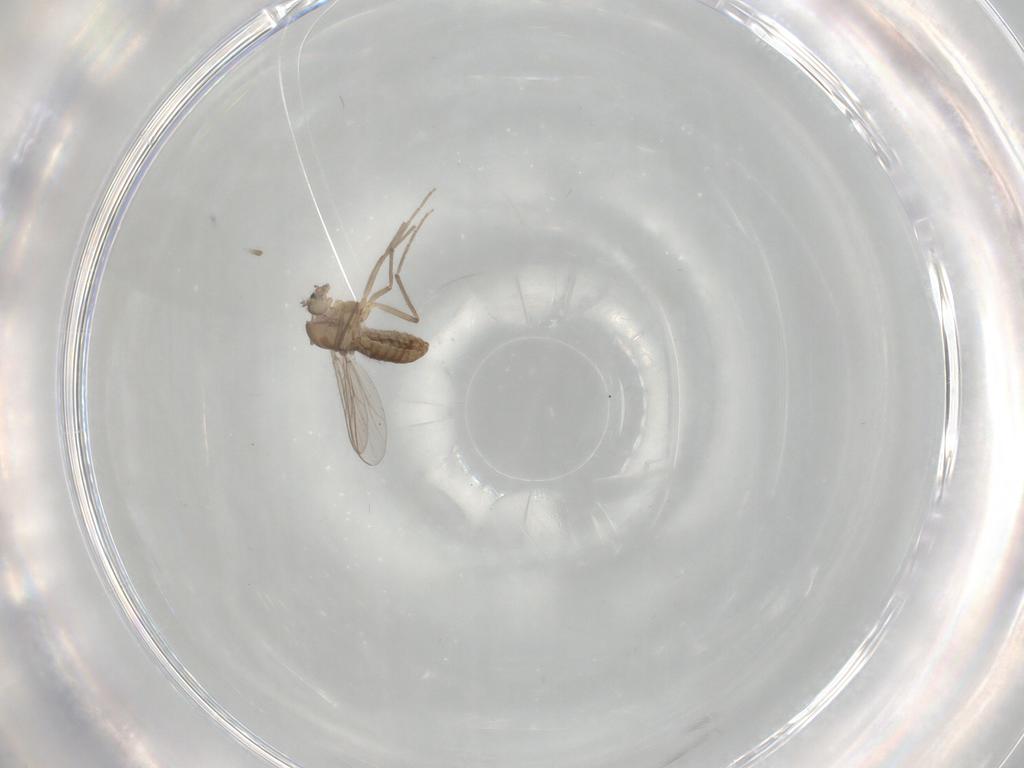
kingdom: Animalia
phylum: Arthropoda
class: Insecta
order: Diptera
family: Chironomidae
